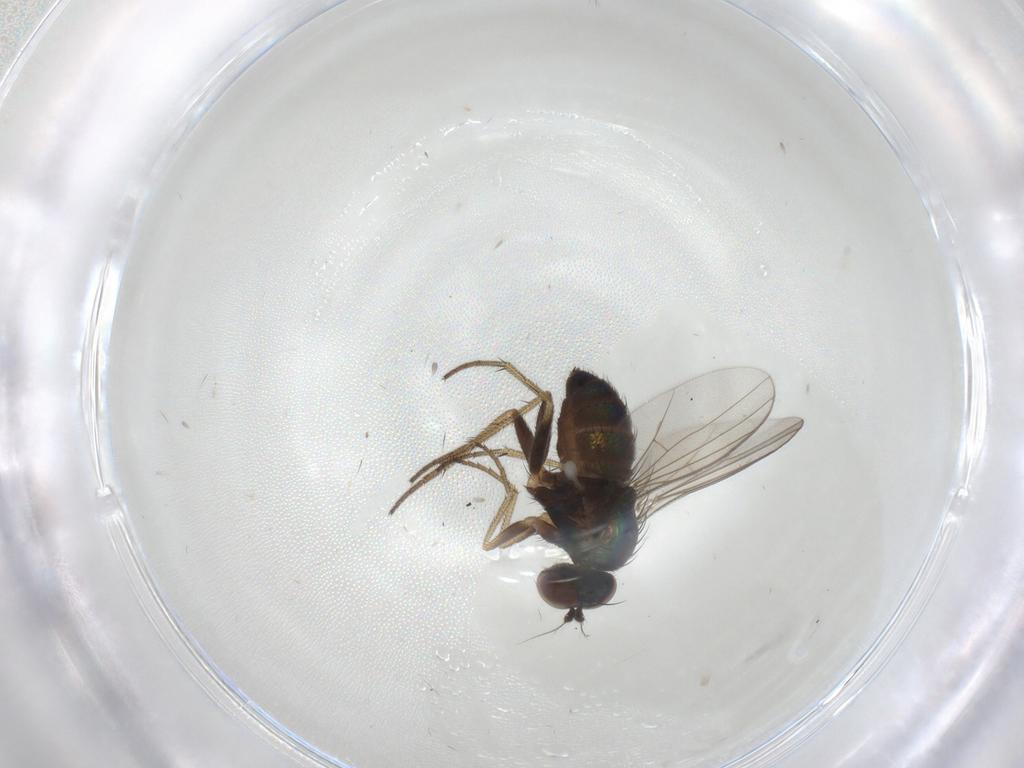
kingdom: Animalia
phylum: Arthropoda
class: Insecta
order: Diptera
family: Dolichopodidae
